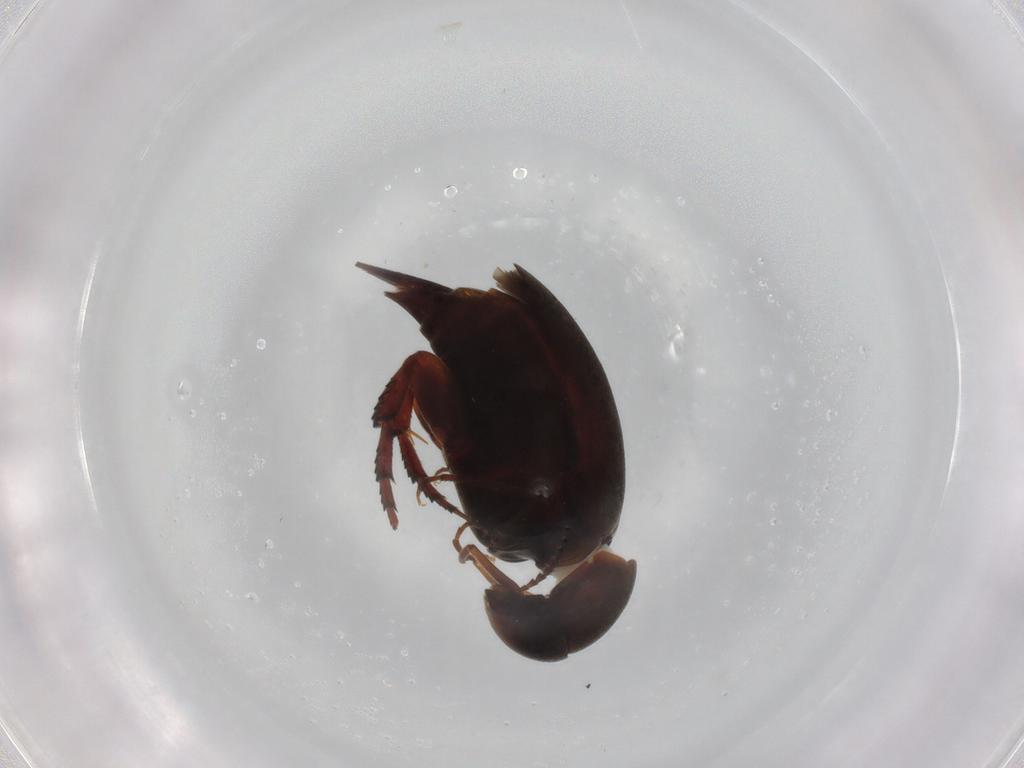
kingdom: Animalia
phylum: Arthropoda
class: Insecta
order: Coleoptera
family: Mordellidae
